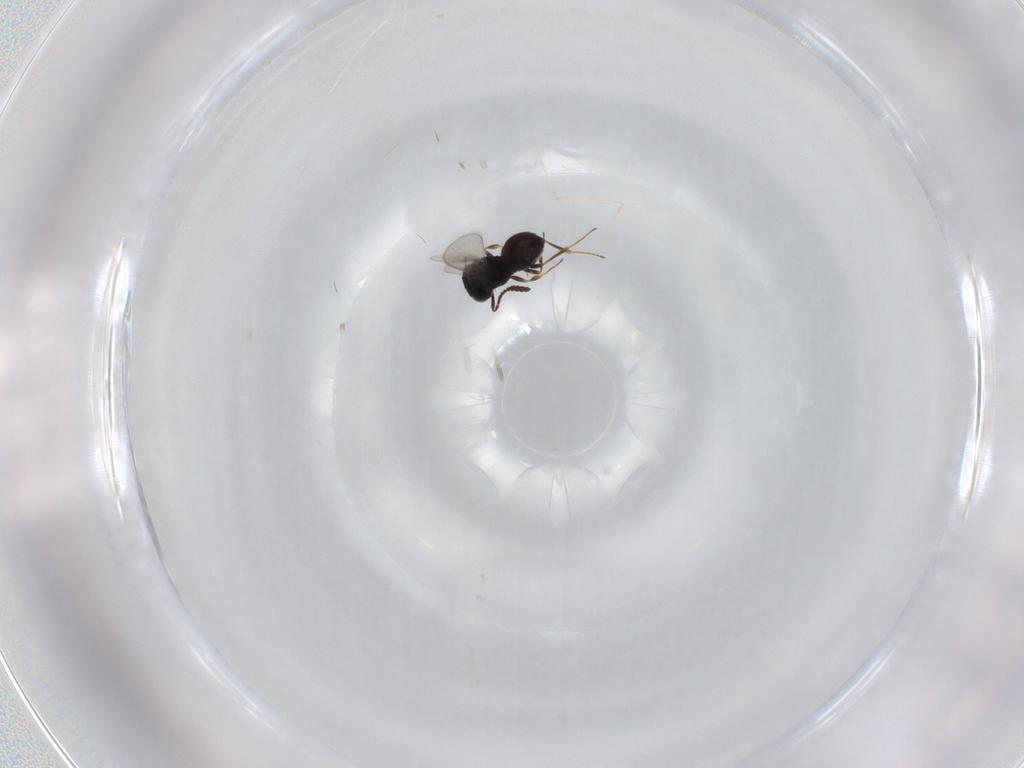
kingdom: Animalia
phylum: Arthropoda
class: Insecta
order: Hymenoptera
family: Scelionidae
